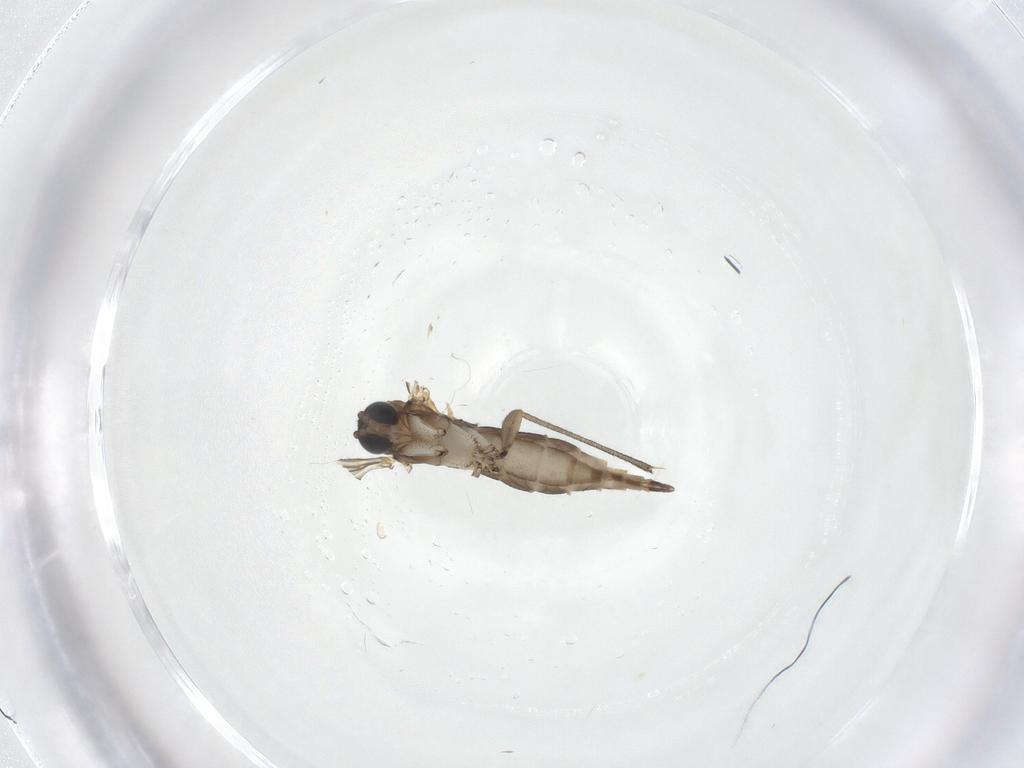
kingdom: Animalia
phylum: Arthropoda
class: Insecta
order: Diptera
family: Sciaridae
